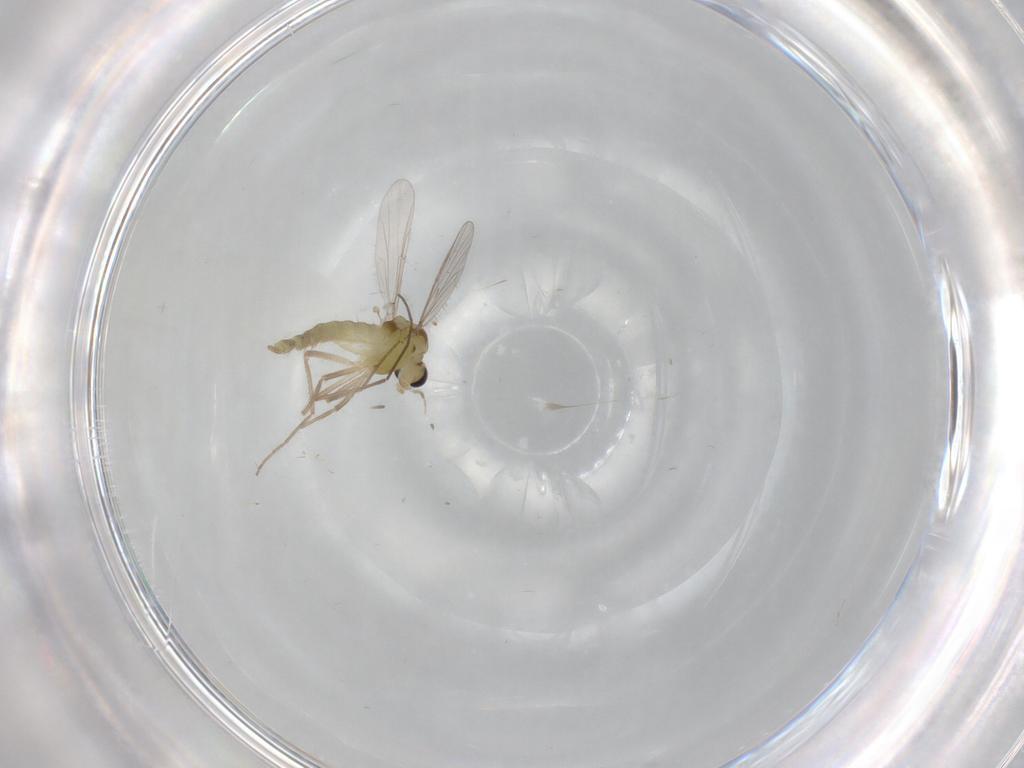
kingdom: Animalia
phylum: Arthropoda
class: Insecta
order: Diptera
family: Chironomidae
